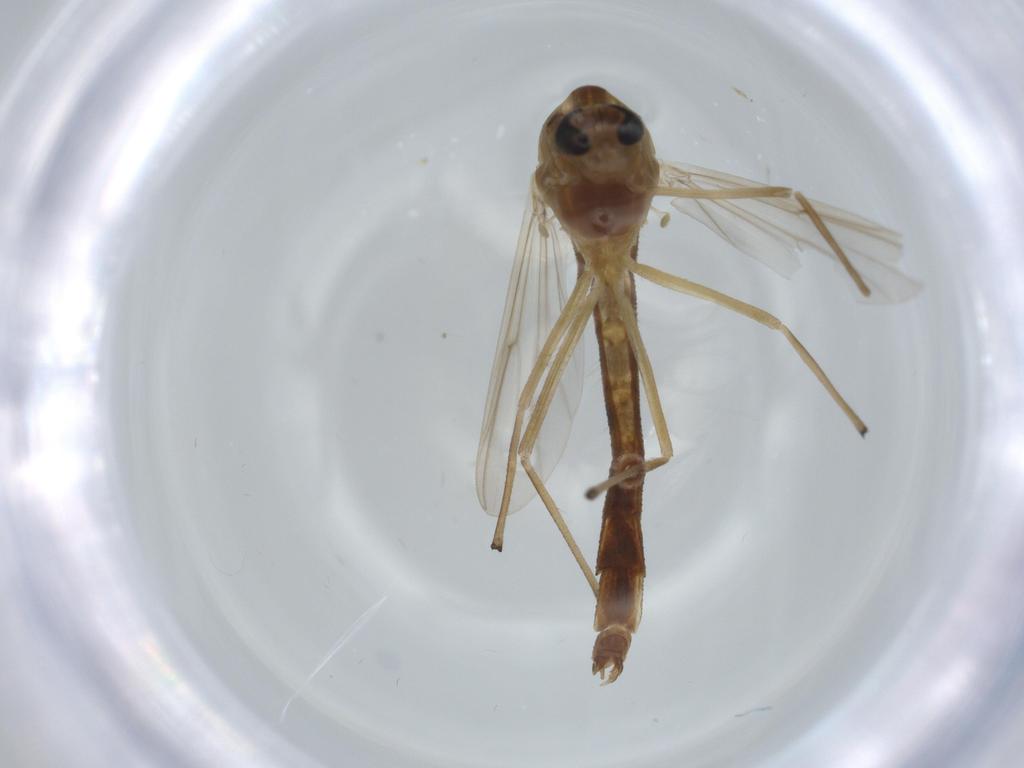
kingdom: Animalia
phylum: Arthropoda
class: Insecta
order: Diptera
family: Chironomidae
